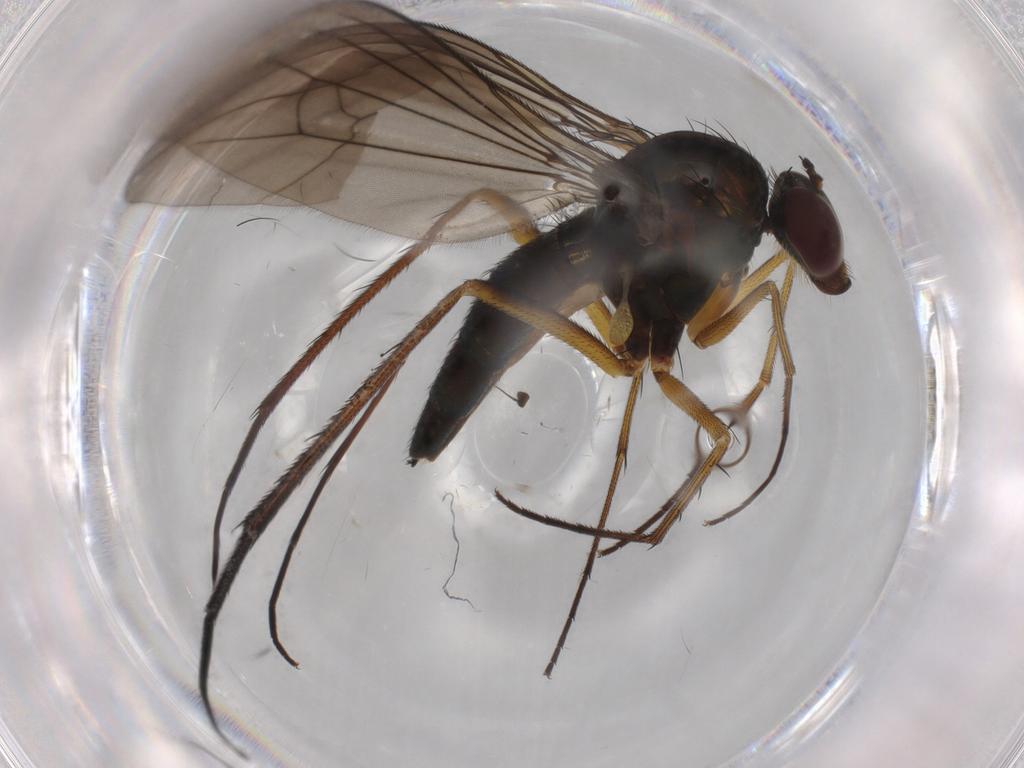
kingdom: Animalia
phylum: Arthropoda
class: Insecta
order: Diptera
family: Dolichopodidae
